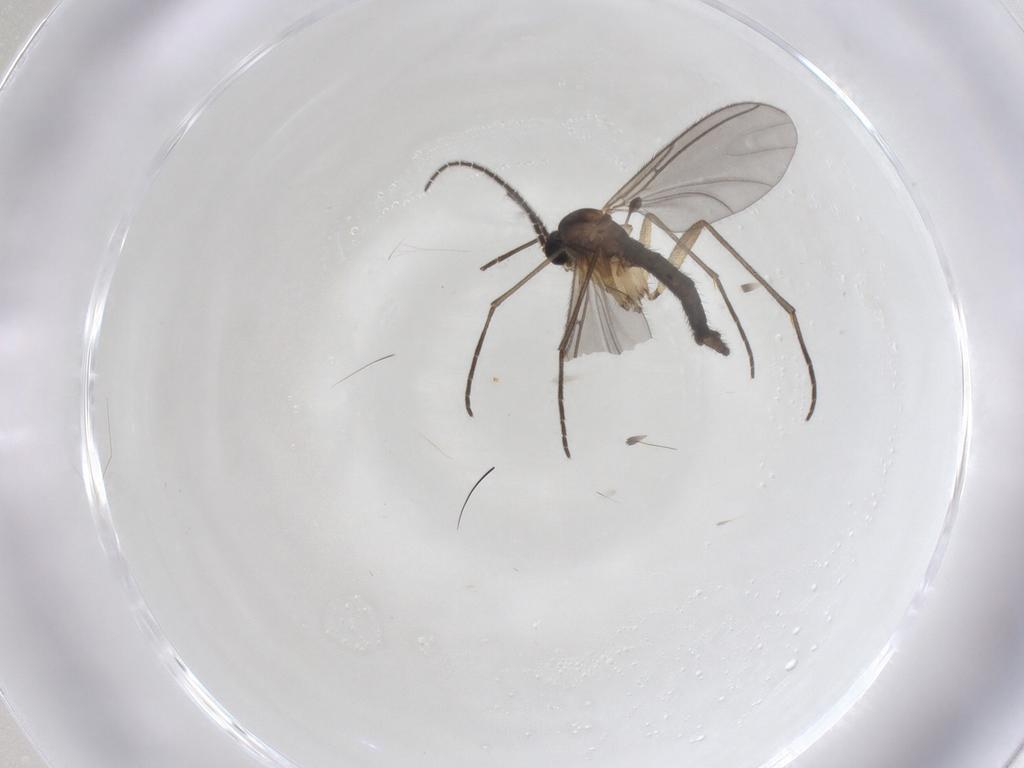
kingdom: Animalia
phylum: Arthropoda
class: Insecta
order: Diptera
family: Sciaridae
